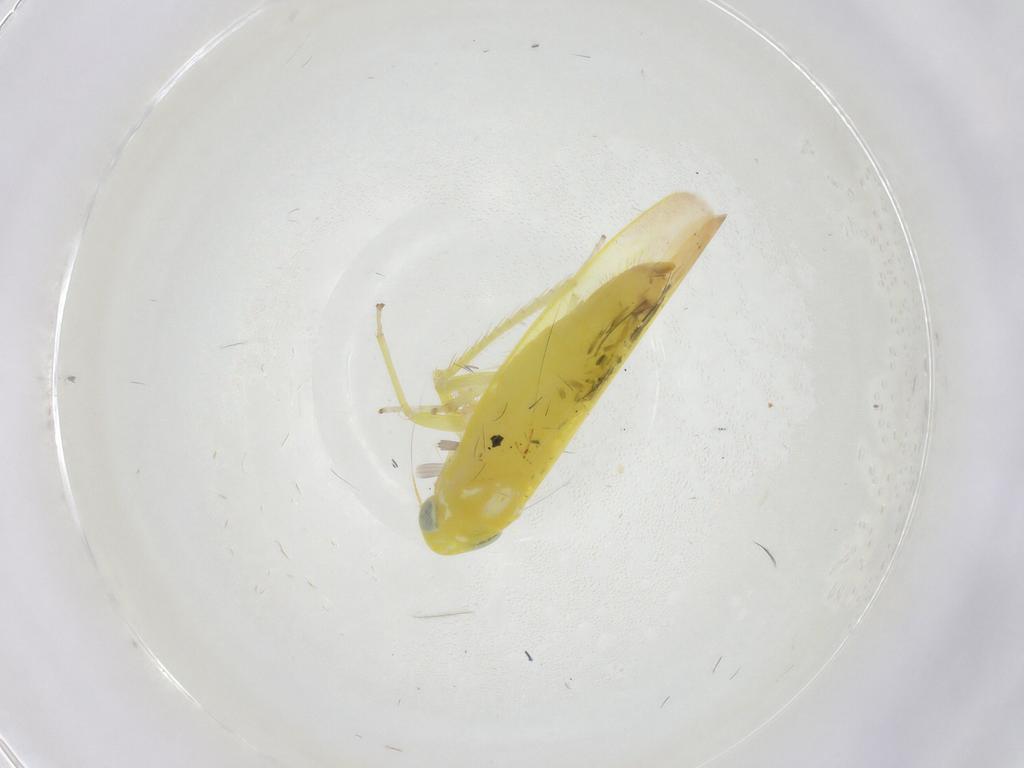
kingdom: Animalia
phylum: Arthropoda
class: Insecta
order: Hemiptera
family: Cicadellidae
